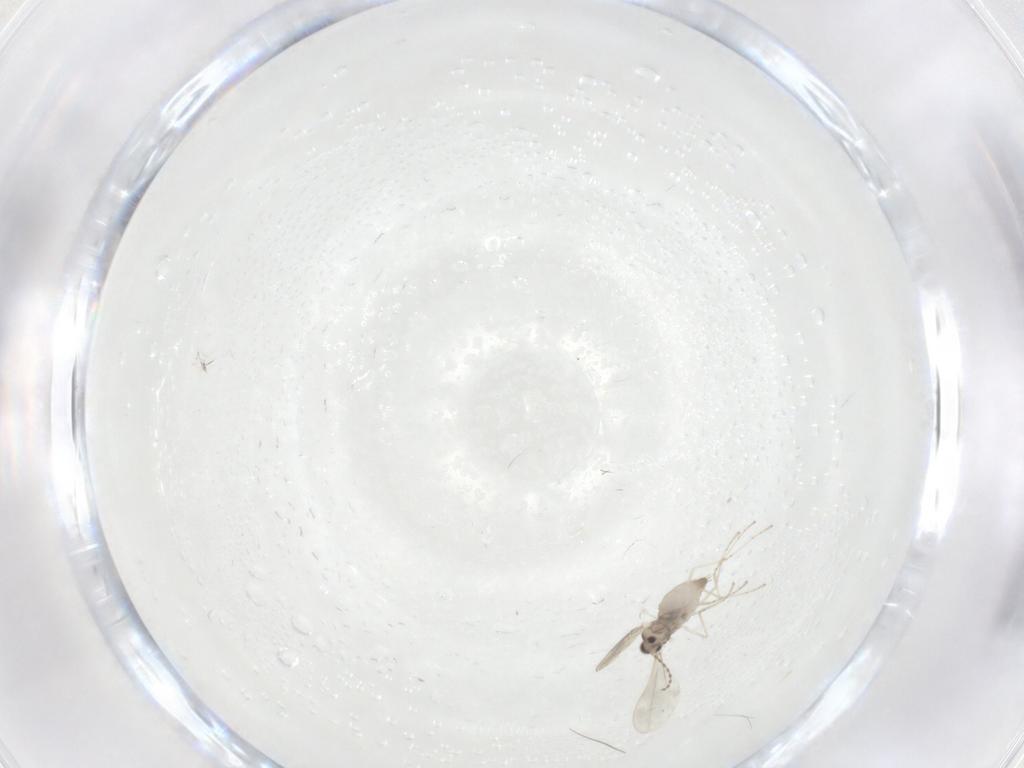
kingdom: Animalia
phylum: Arthropoda
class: Insecta
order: Diptera
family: Cecidomyiidae
